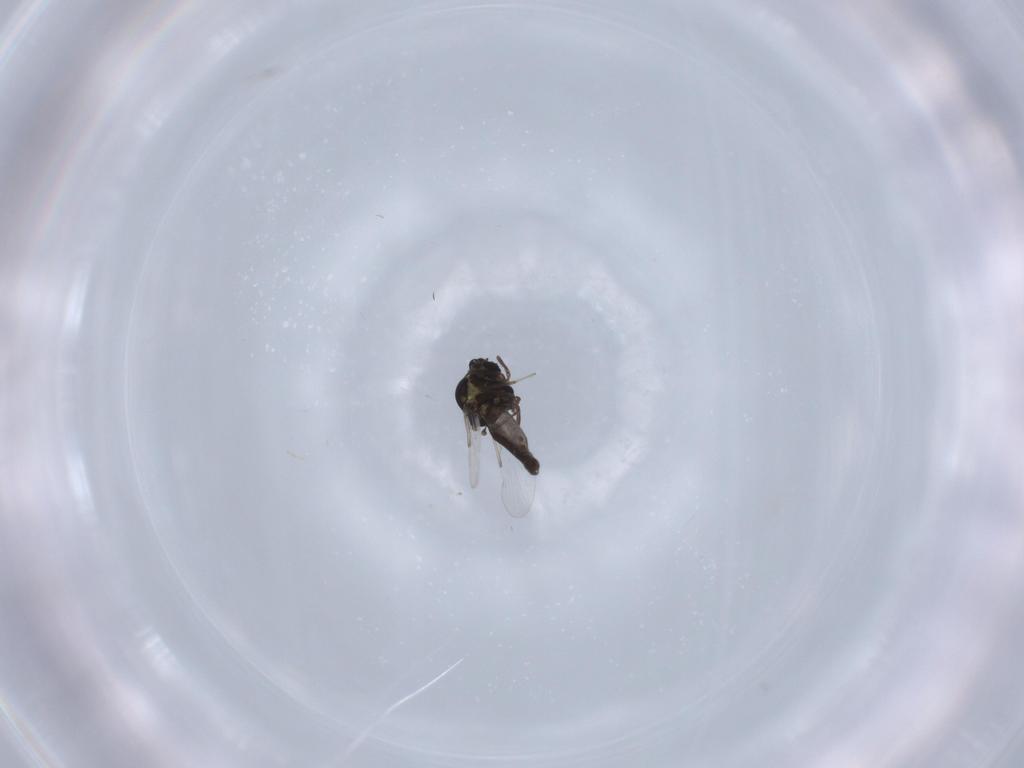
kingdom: Animalia
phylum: Arthropoda
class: Insecta
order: Diptera
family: Ceratopogonidae
